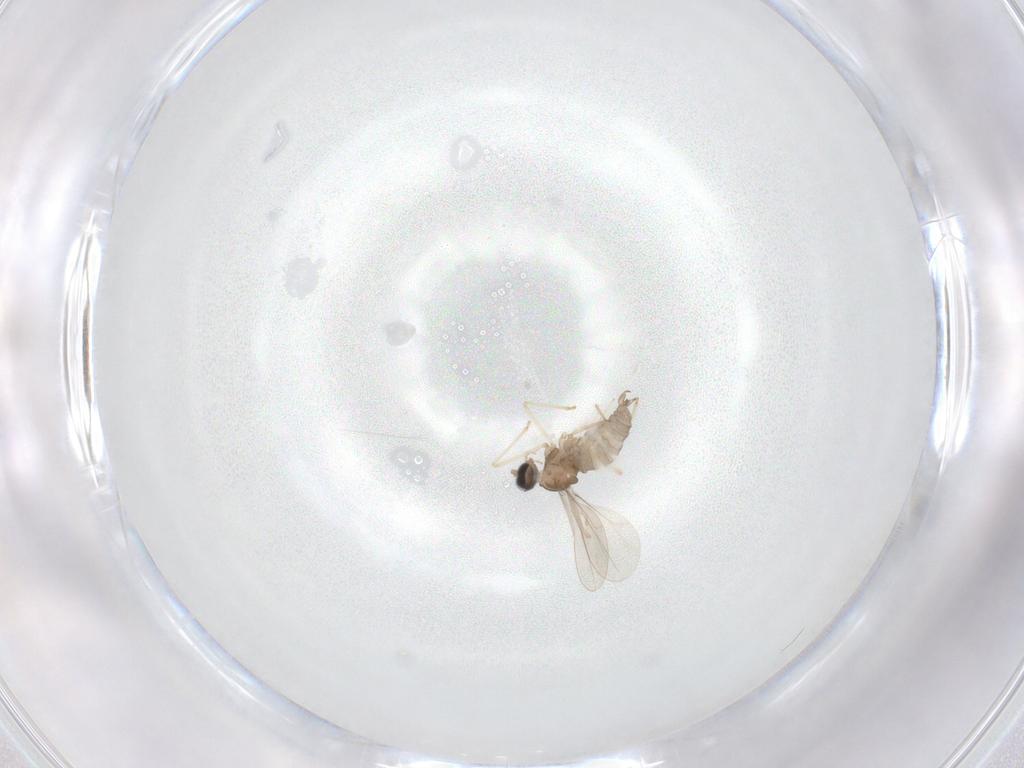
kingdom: Animalia
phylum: Arthropoda
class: Insecta
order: Diptera
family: Cecidomyiidae
